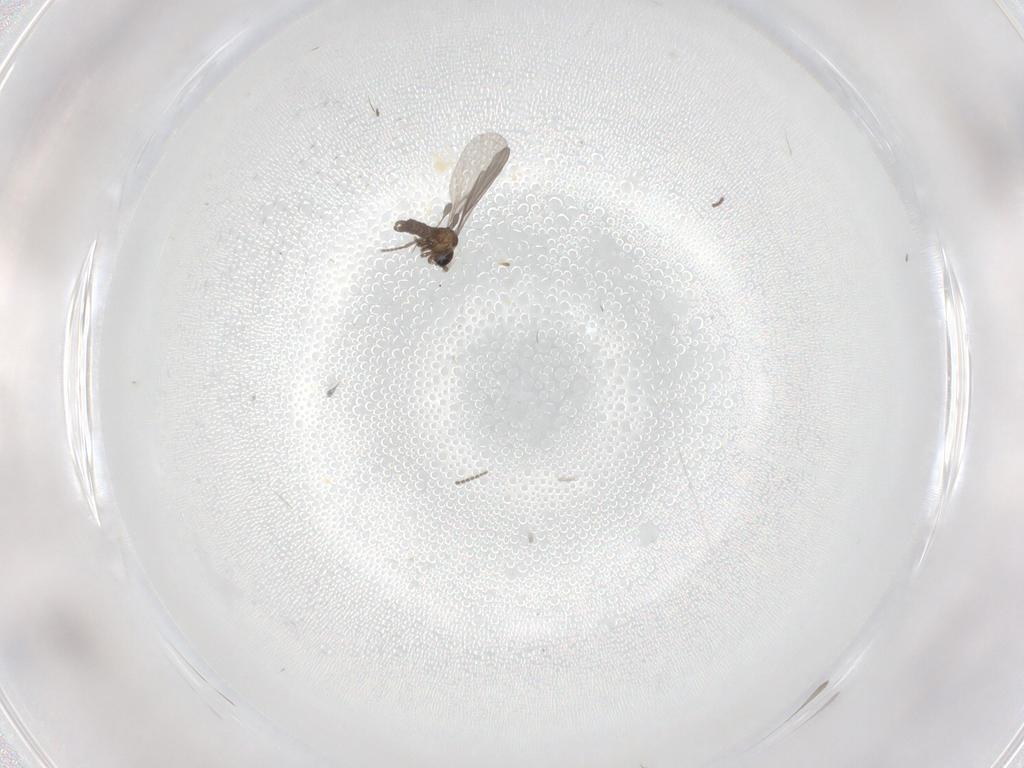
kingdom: Animalia
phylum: Arthropoda
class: Insecta
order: Diptera
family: Sciaridae
